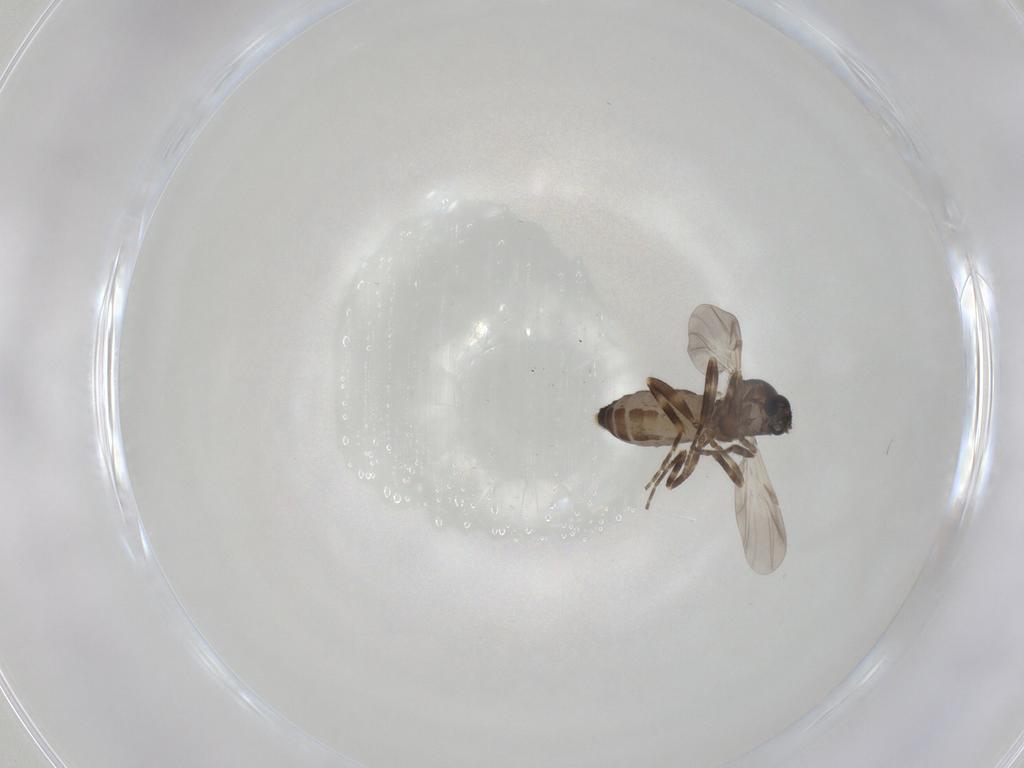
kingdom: Animalia
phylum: Arthropoda
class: Insecta
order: Diptera
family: Ceratopogonidae
